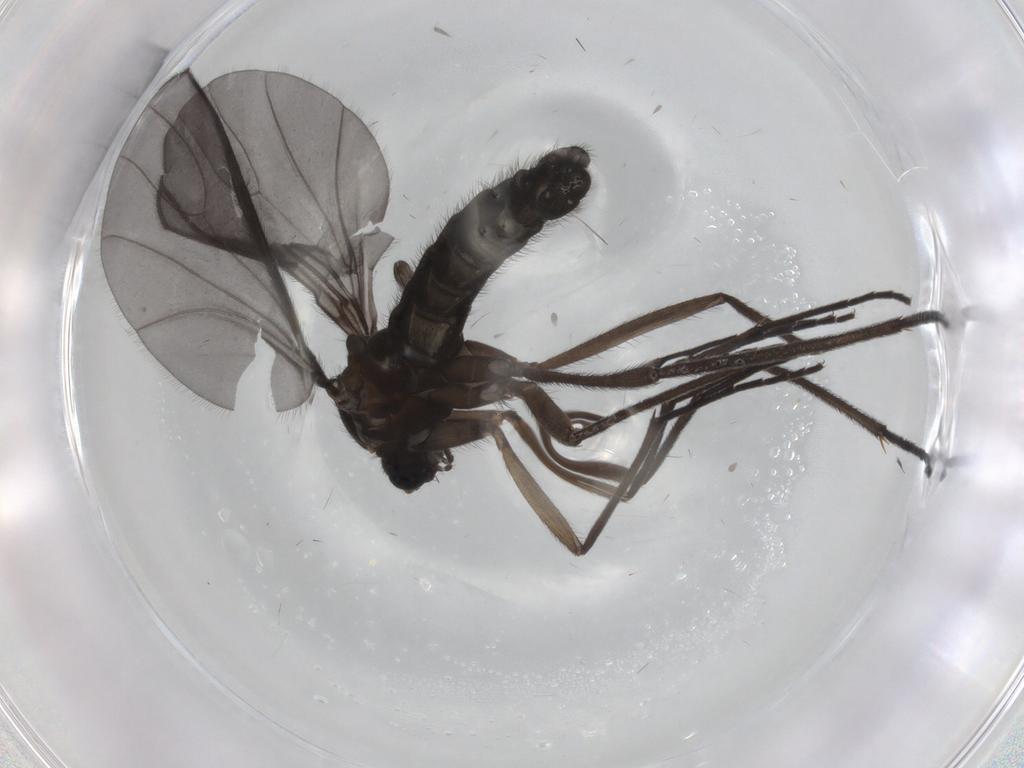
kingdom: Animalia
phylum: Arthropoda
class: Insecta
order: Diptera
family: Sciaridae
